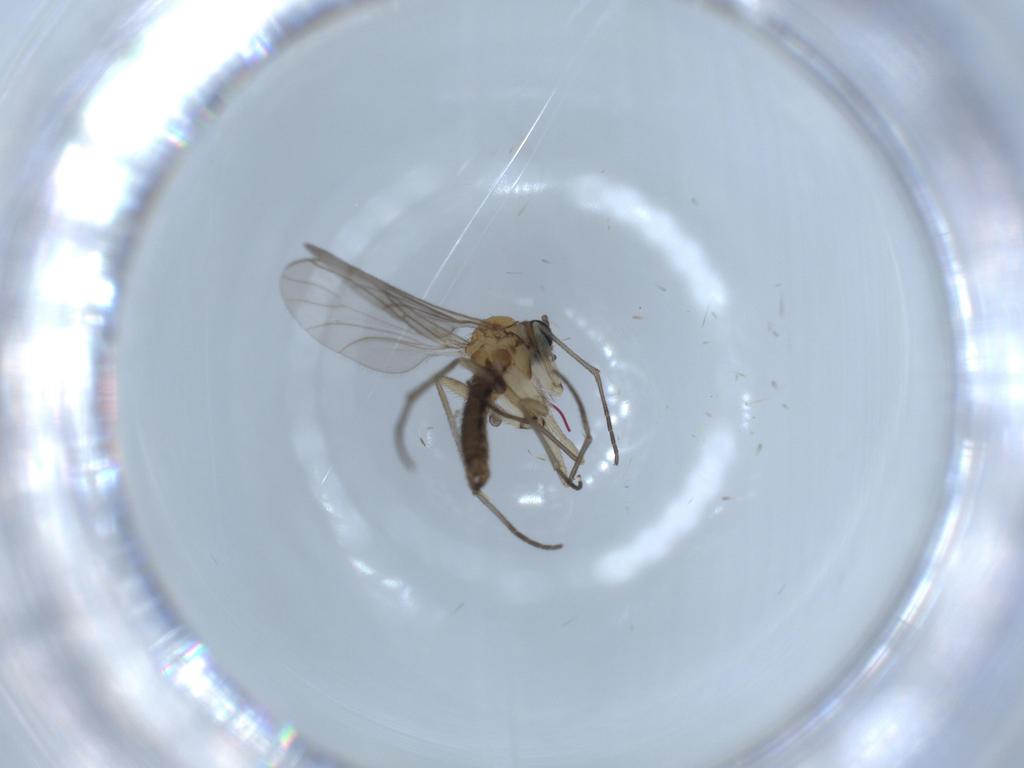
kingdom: Animalia
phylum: Arthropoda
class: Insecta
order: Diptera
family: Sciaridae
